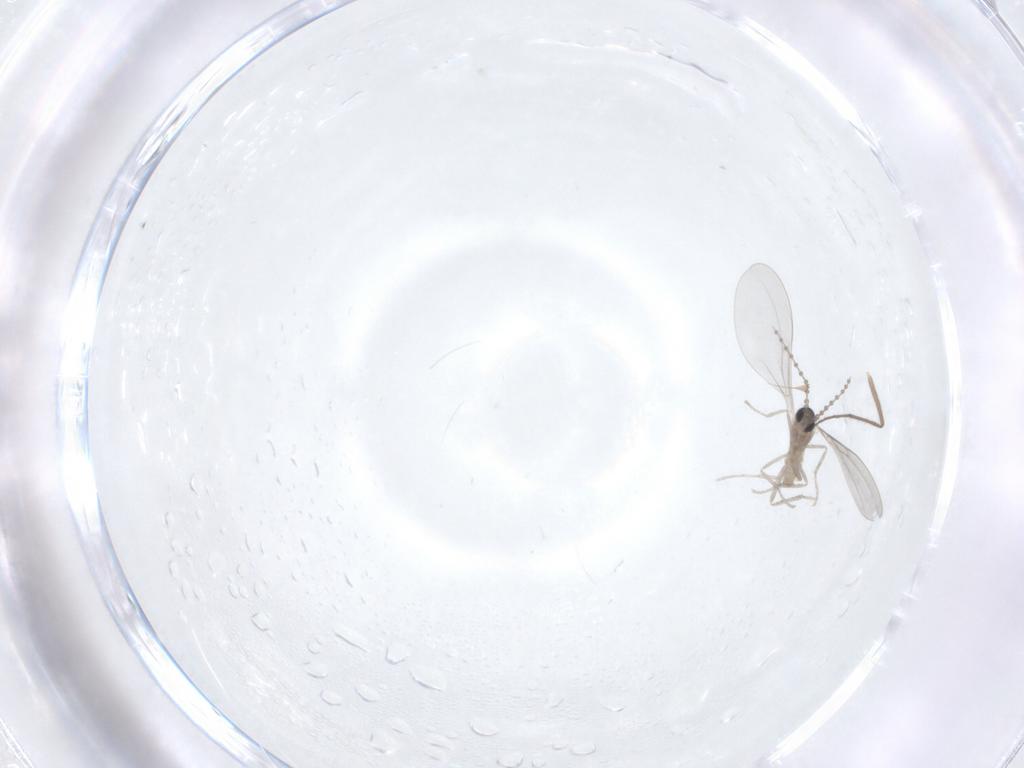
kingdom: Animalia
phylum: Arthropoda
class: Insecta
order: Diptera
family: Cecidomyiidae
